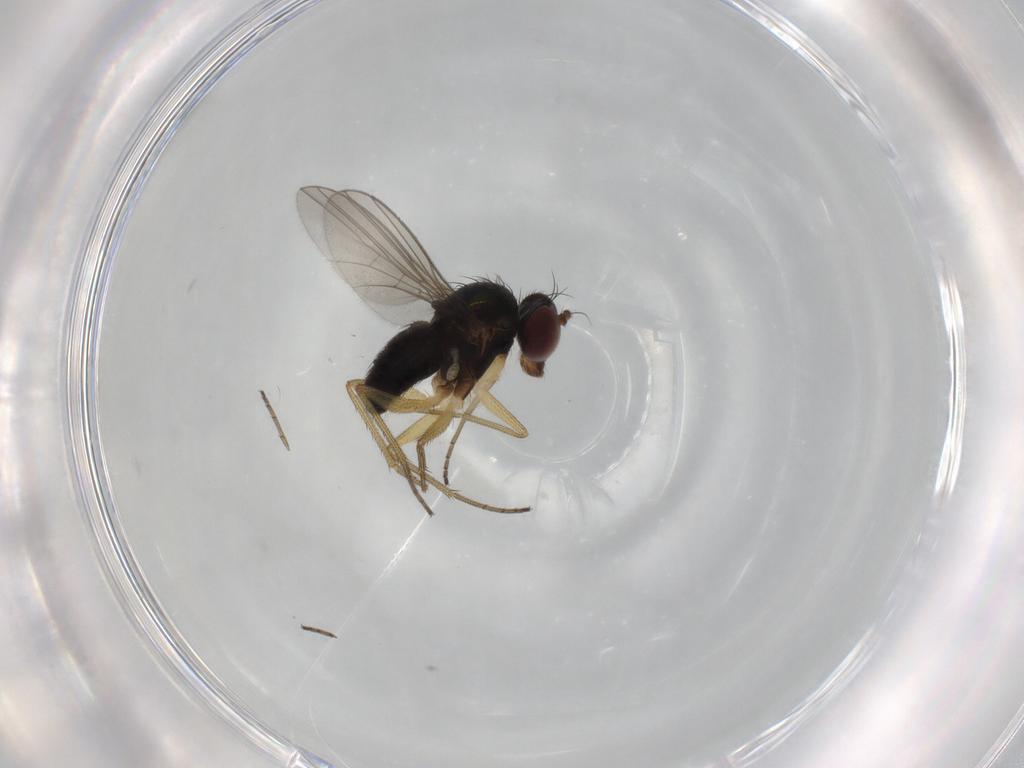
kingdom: Animalia
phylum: Arthropoda
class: Insecta
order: Diptera
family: Dolichopodidae
